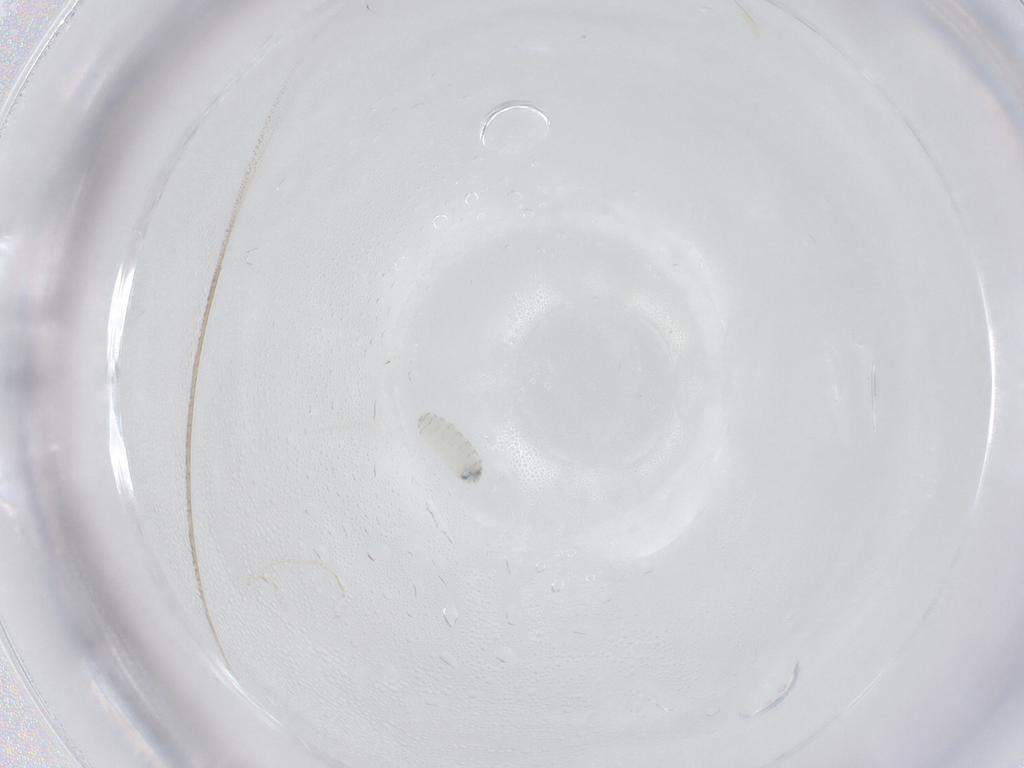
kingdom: Animalia
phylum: Arthropoda
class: Insecta
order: Diptera
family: Tachinidae
